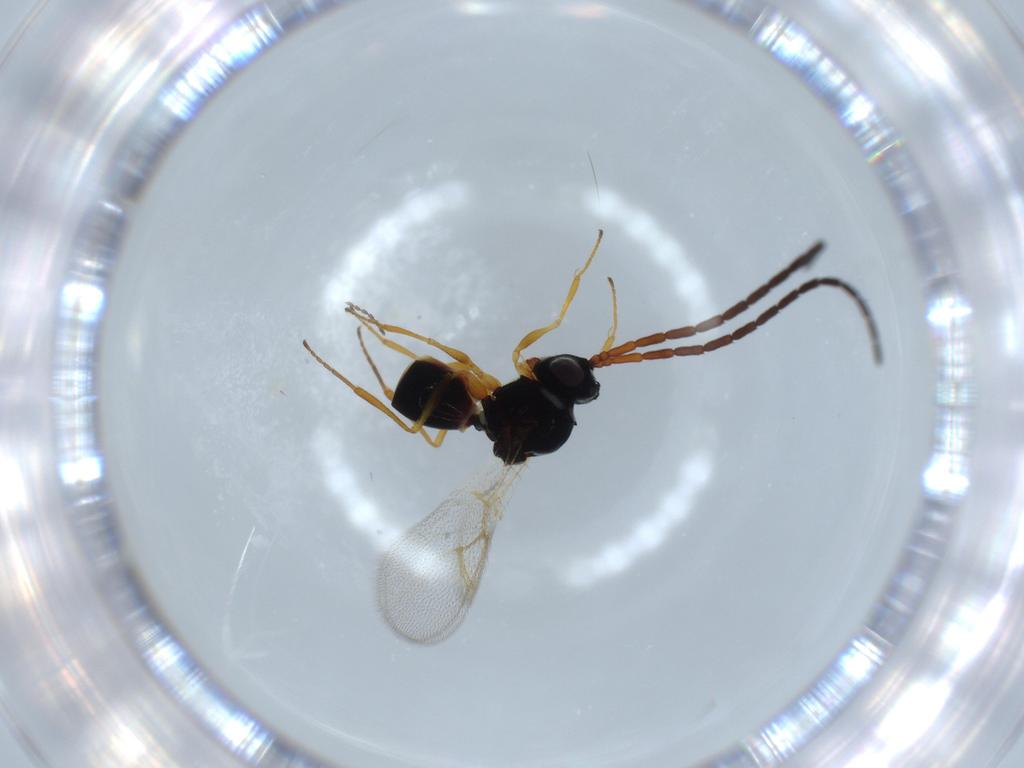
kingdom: Animalia
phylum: Arthropoda
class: Insecta
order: Hymenoptera
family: Figitidae
